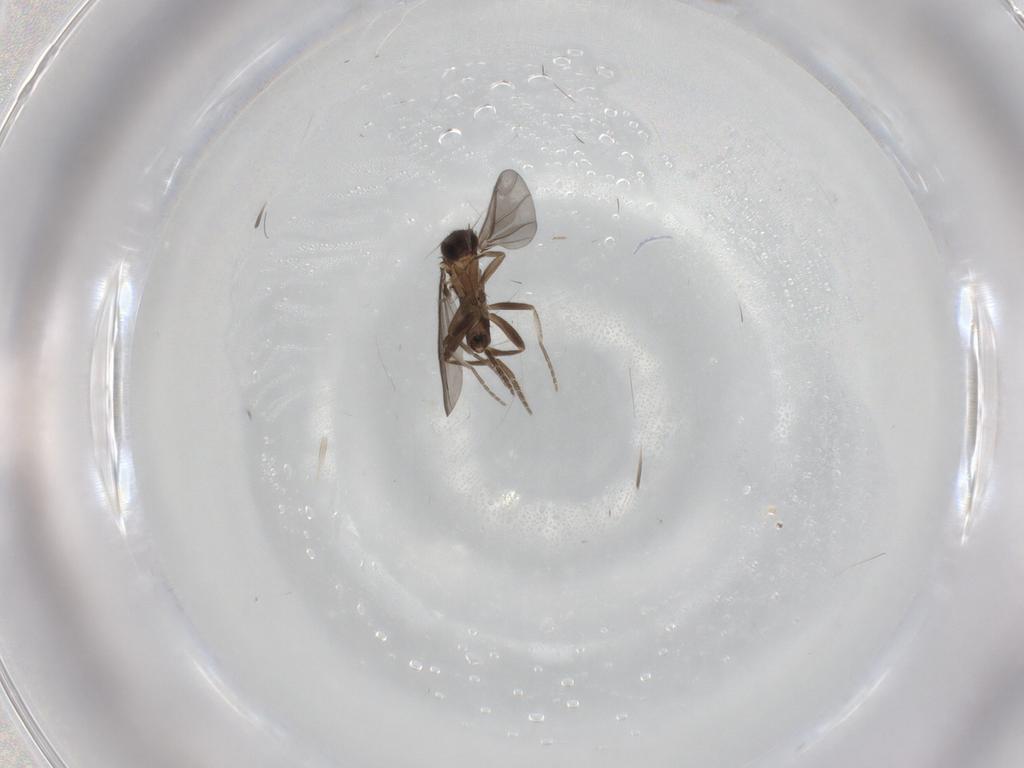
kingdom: Animalia
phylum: Arthropoda
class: Insecta
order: Diptera
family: Phoridae
